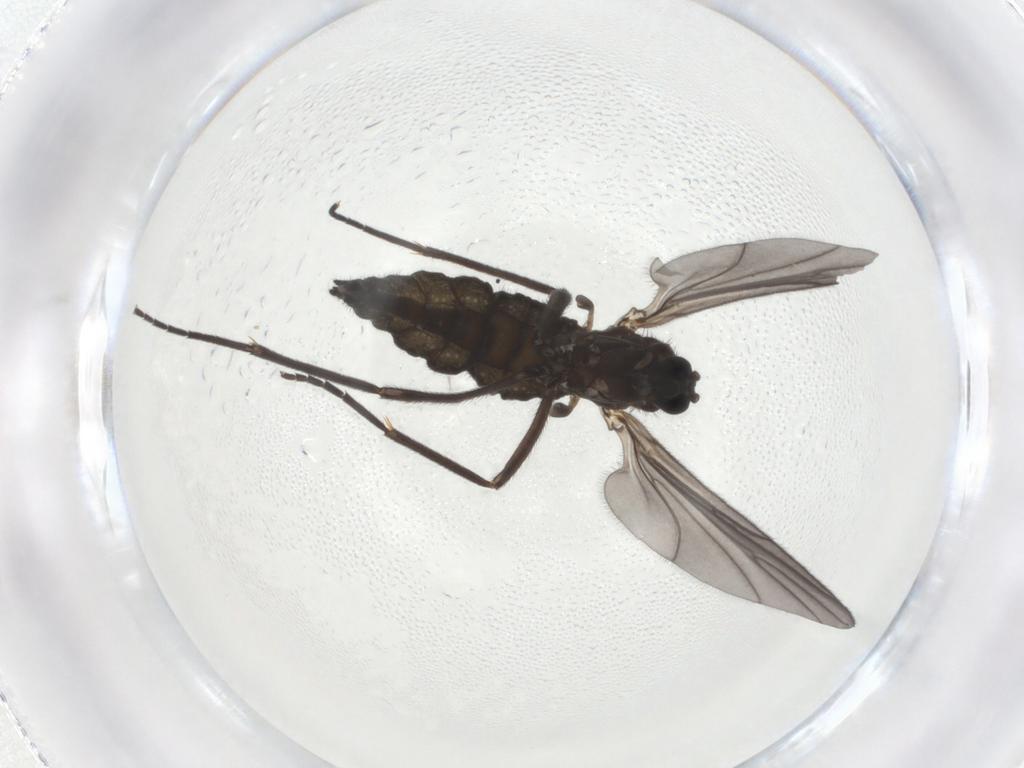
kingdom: Animalia
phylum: Arthropoda
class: Insecta
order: Diptera
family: Sciaridae
